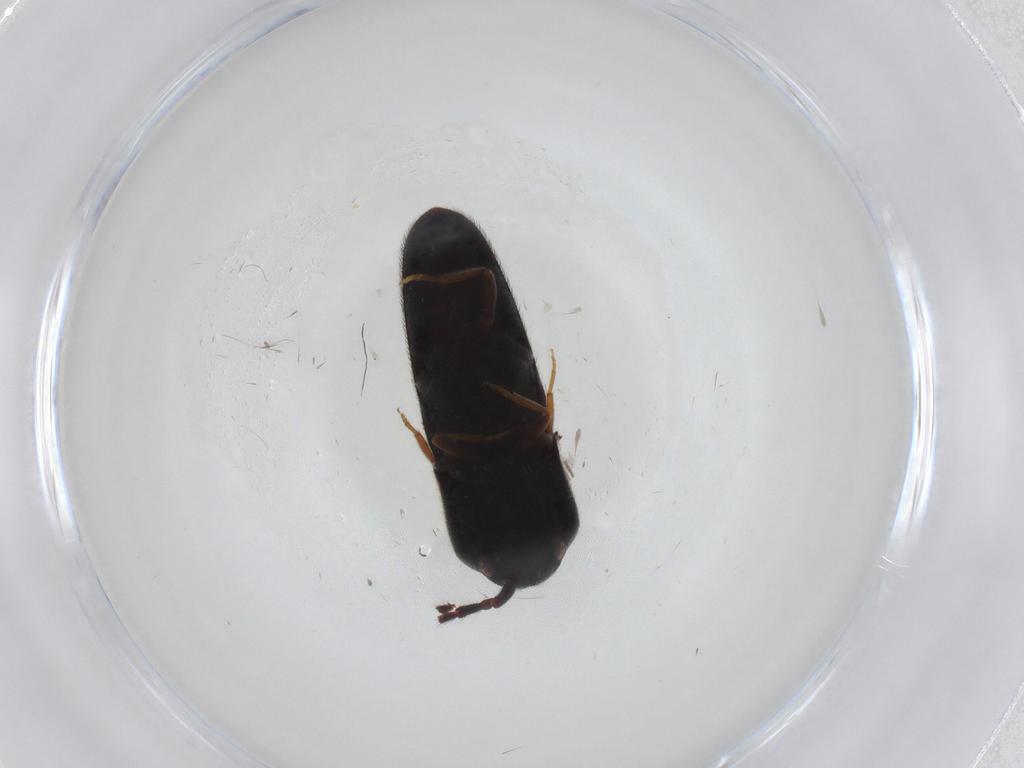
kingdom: Animalia
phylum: Arthropoda
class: Insecta
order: Coleoptera
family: Eucnemidae
